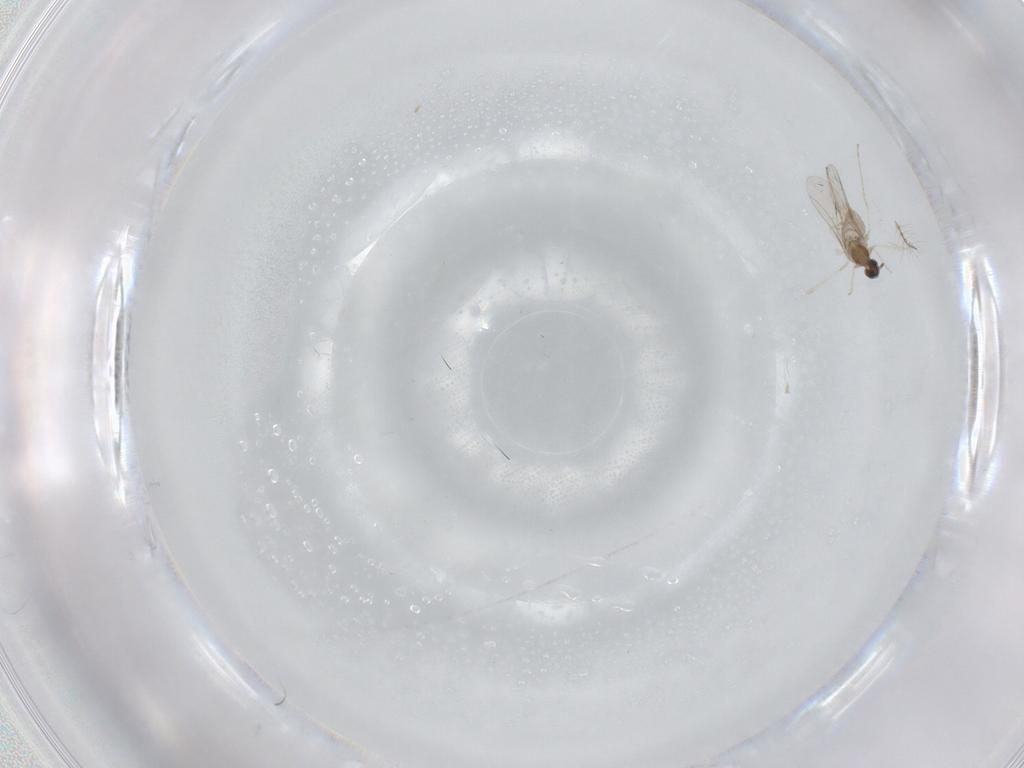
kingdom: Animalia
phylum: Arthropoda
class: Insecta
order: Diptera
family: Cecidomyiidae
